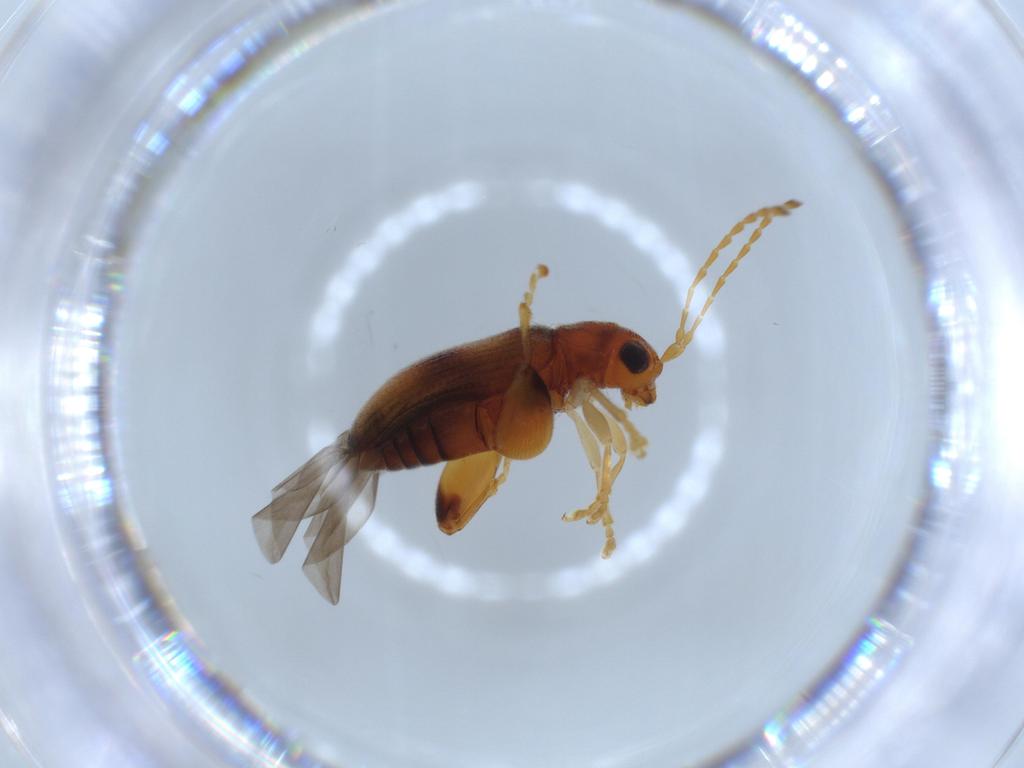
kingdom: Animalia
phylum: Arthropoda
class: Insecta
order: Coleoptera
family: Chrysomelidae
